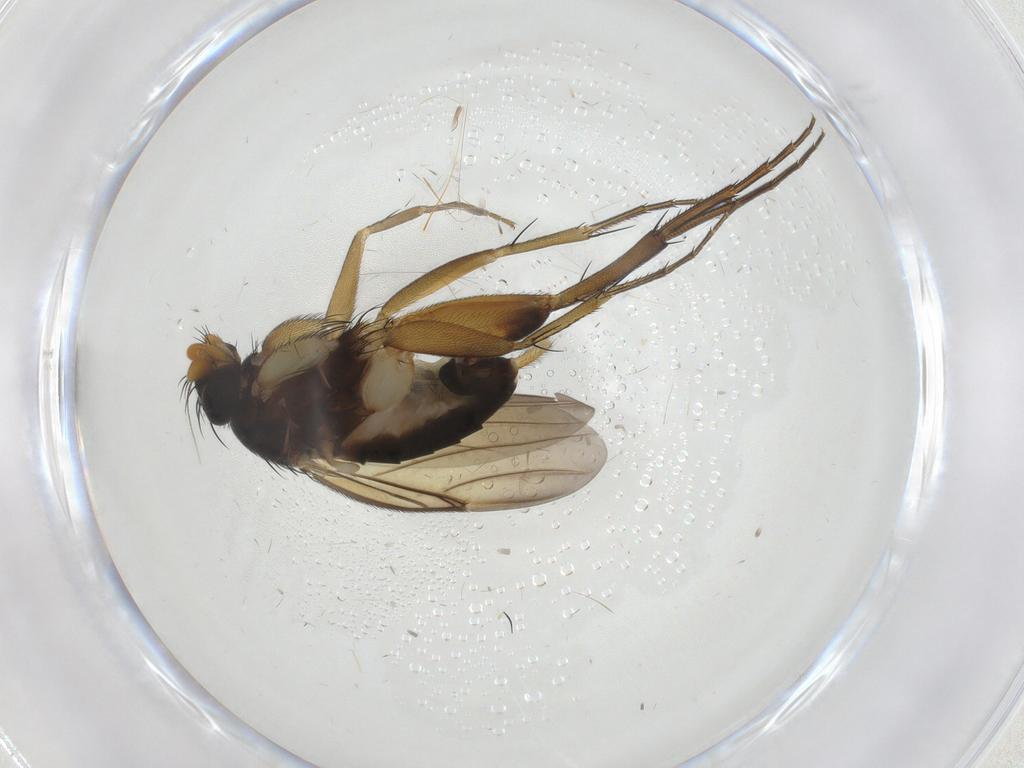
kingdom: Animalia
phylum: Arthropoda
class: Insecta
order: Diptera
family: Phoridae
